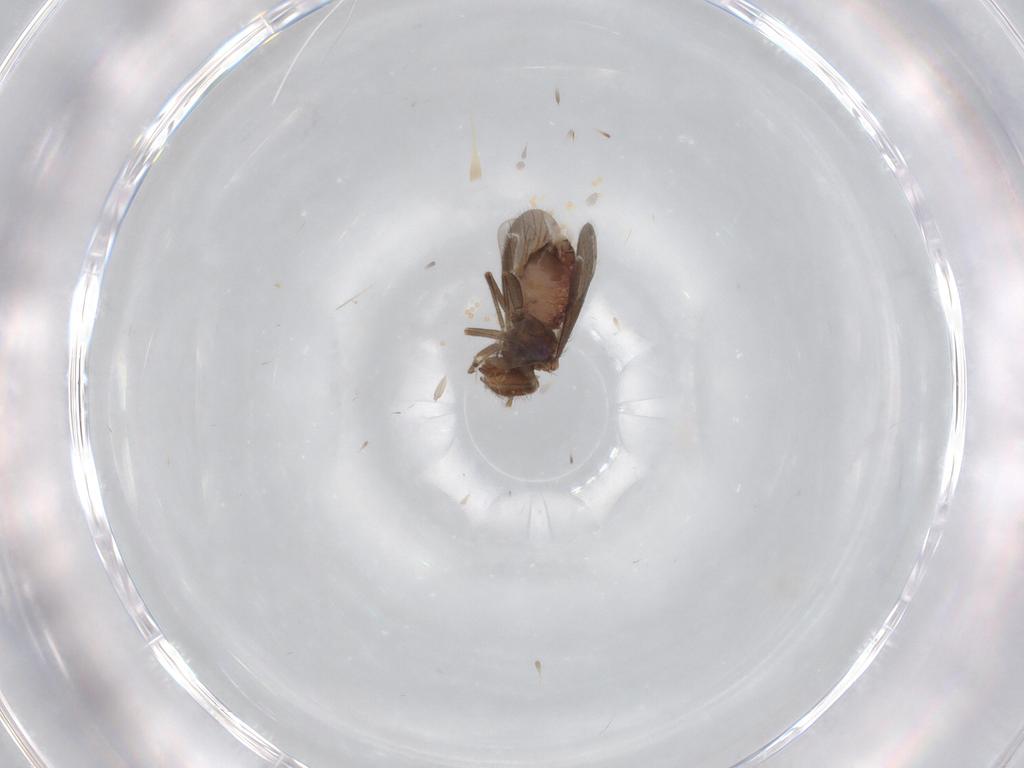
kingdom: Animalia
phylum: Arthropoda
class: Insecta
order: Psocodea
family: Ectopsocidae
